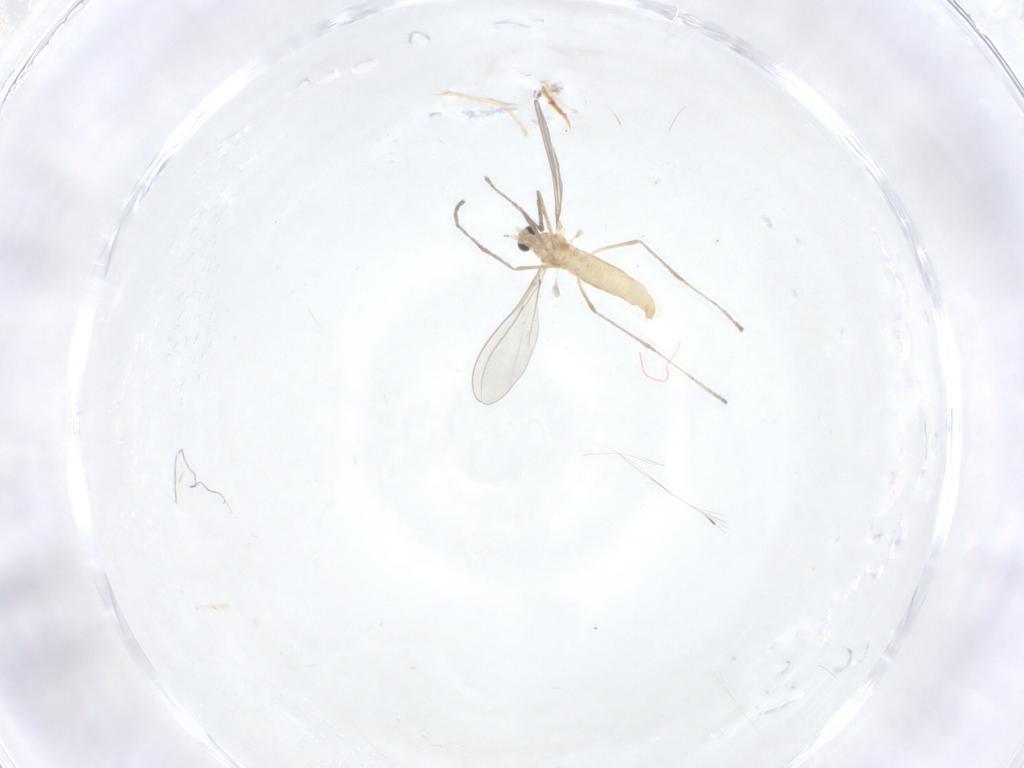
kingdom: Animalia
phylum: Arthropoda
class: Insecta
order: Diptera
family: Cecidomyiidae
